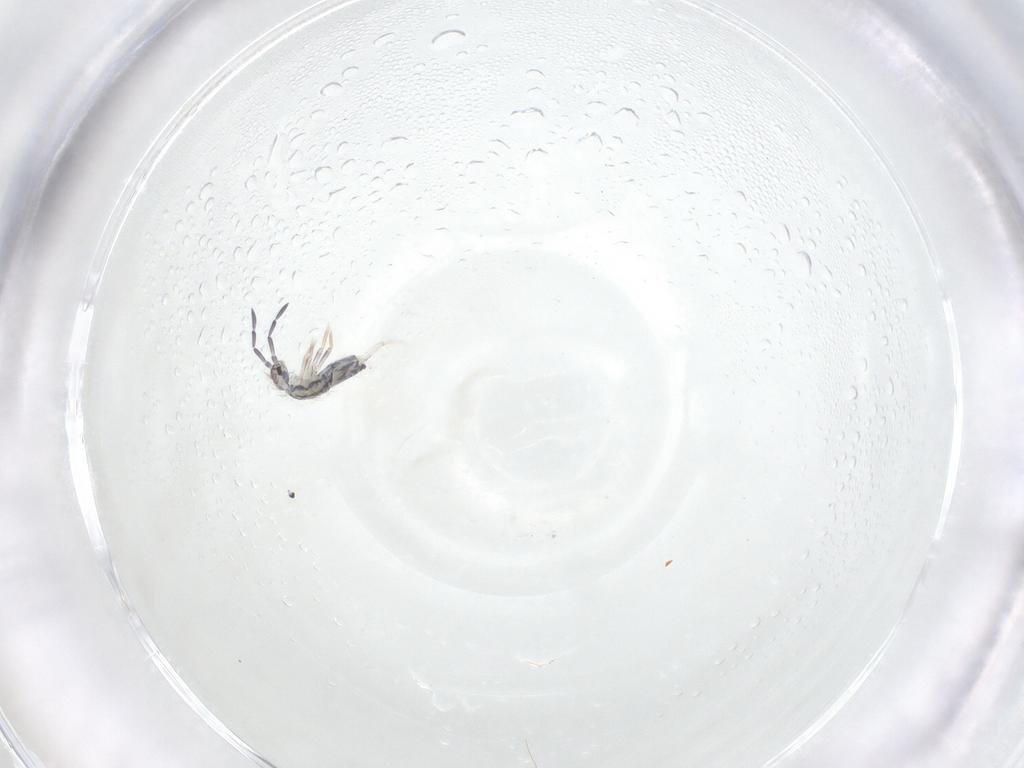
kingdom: Animalia
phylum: Arthropoda
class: Collembola
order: Entomobryomorpha
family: Entomobryidae
